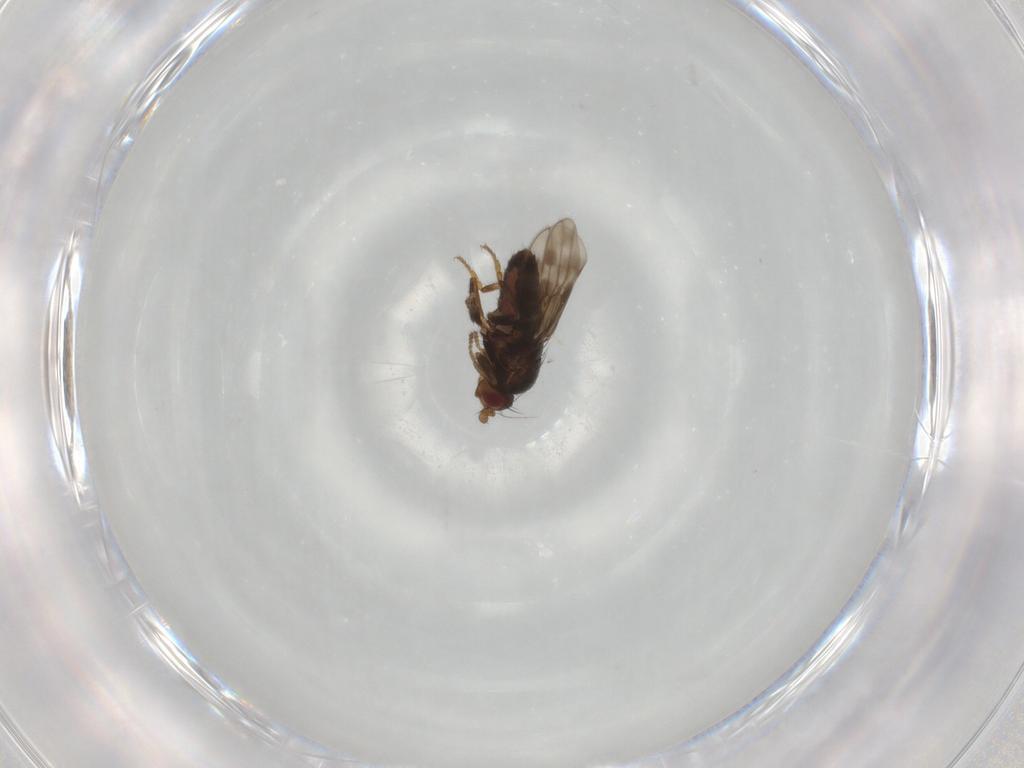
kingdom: Animalia
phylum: Arthropoda
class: Insecta
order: Diptera
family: Sphaeroceridae
